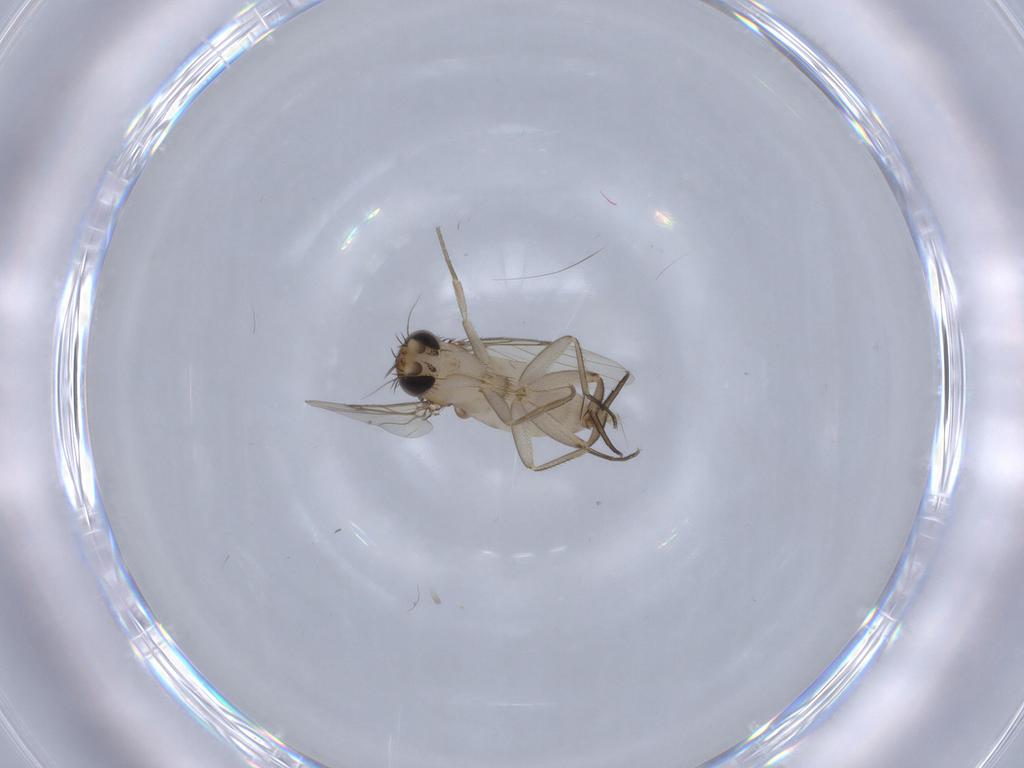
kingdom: Animalia
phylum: Arthropoda
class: Insecta
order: Diptera
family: Phoridae
